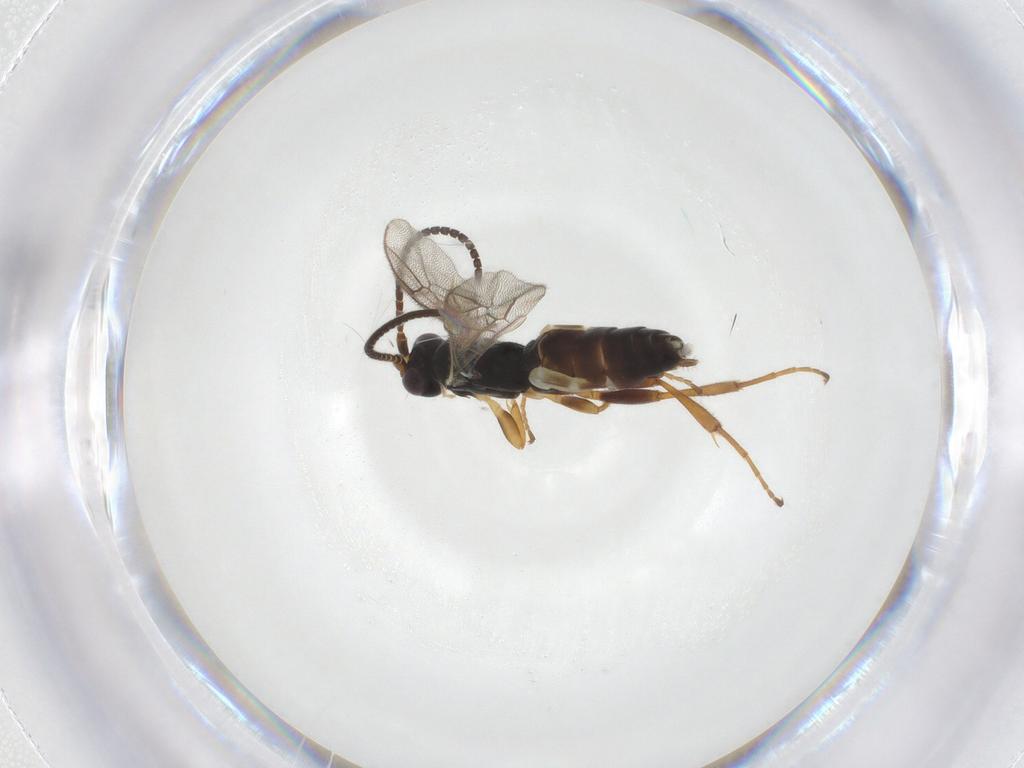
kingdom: Animalia
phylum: Arthropoda
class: Insecta
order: Hymenoptera
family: Ichneumonidae
